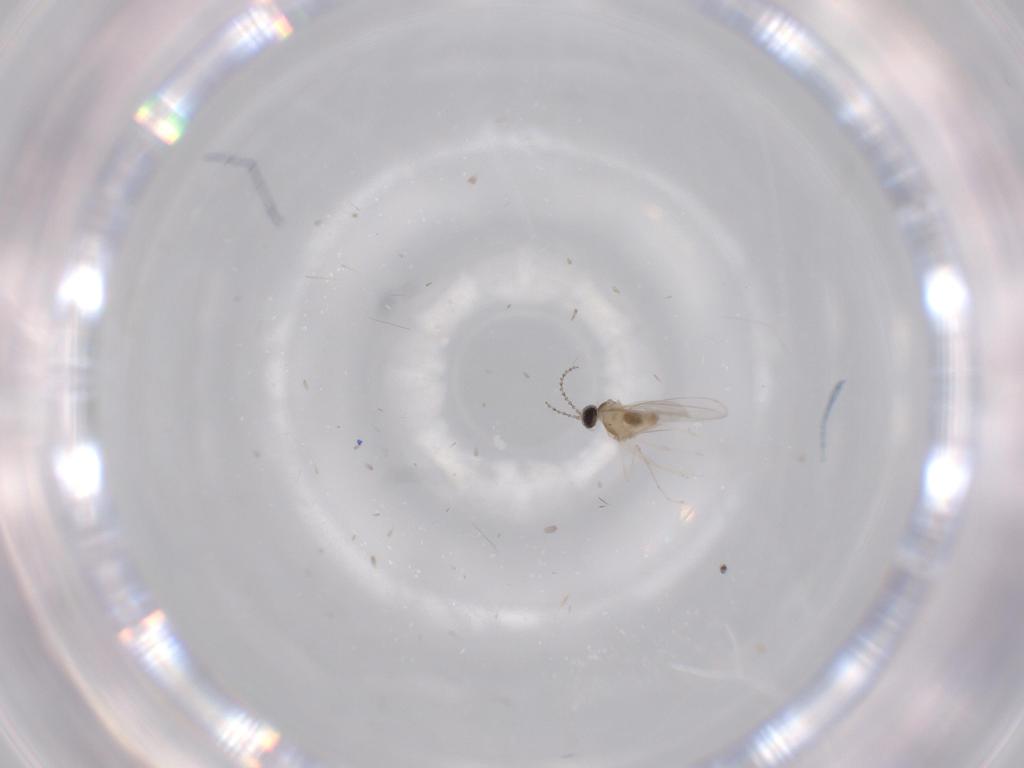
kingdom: Animalia
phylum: Arthropoda
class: Insecta
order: Diptera
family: Cecidomyiidae
